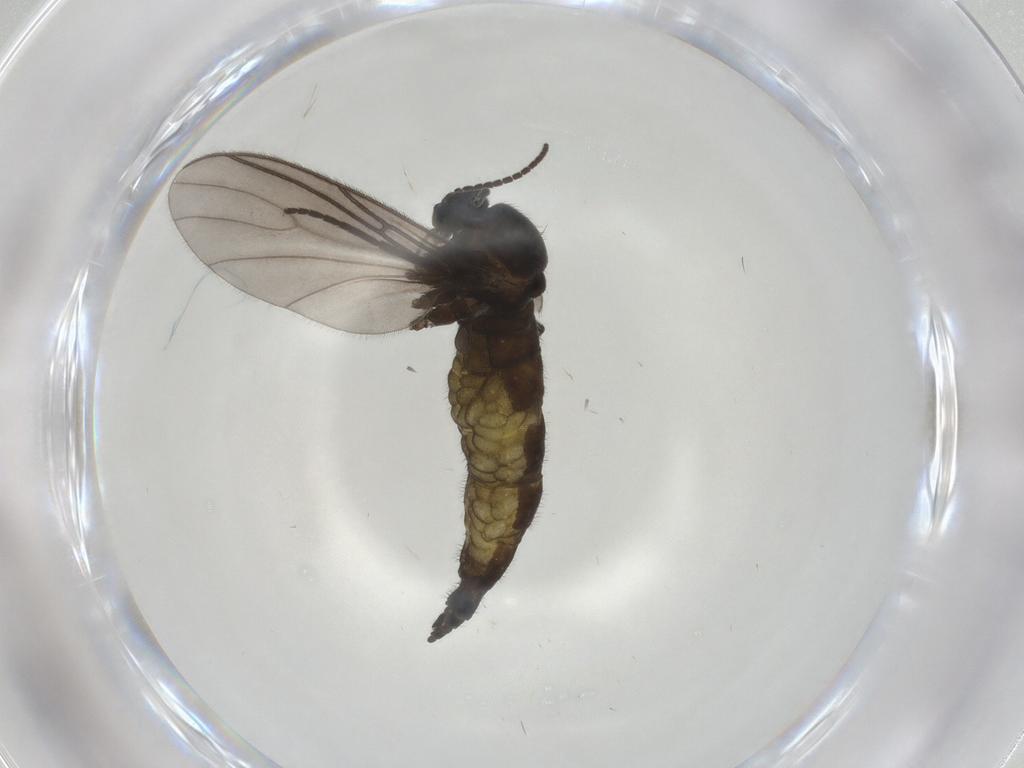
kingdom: Animalia
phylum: Arthropoda
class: Insecta
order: Diptera
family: Sciaridae
